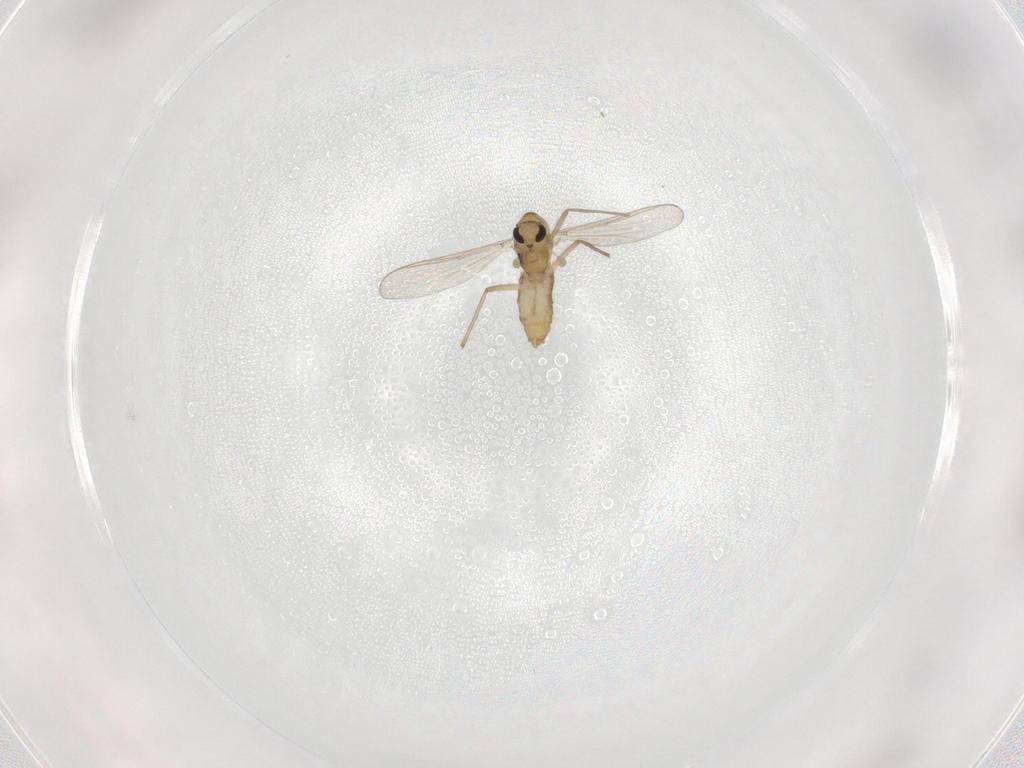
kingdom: Animalia
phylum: Arthropoda
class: Insecta
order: Diptera
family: Chironomidae
